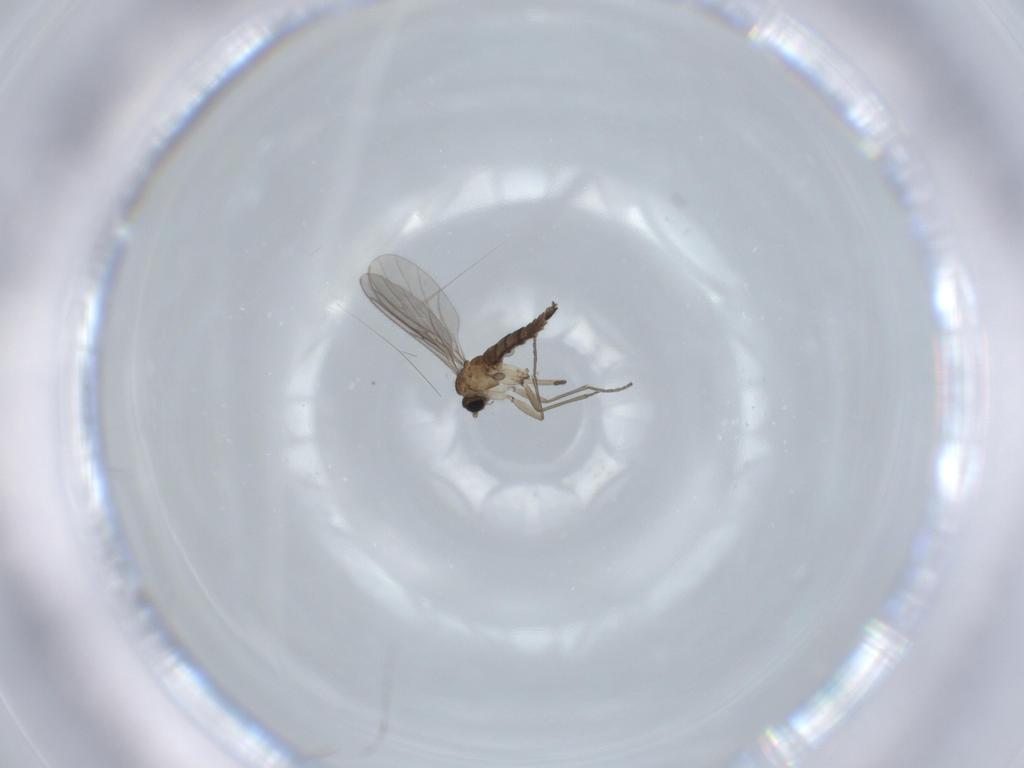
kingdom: Animalia
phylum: Arthropoda
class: Insecta
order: Diptera
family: Sciaridae
